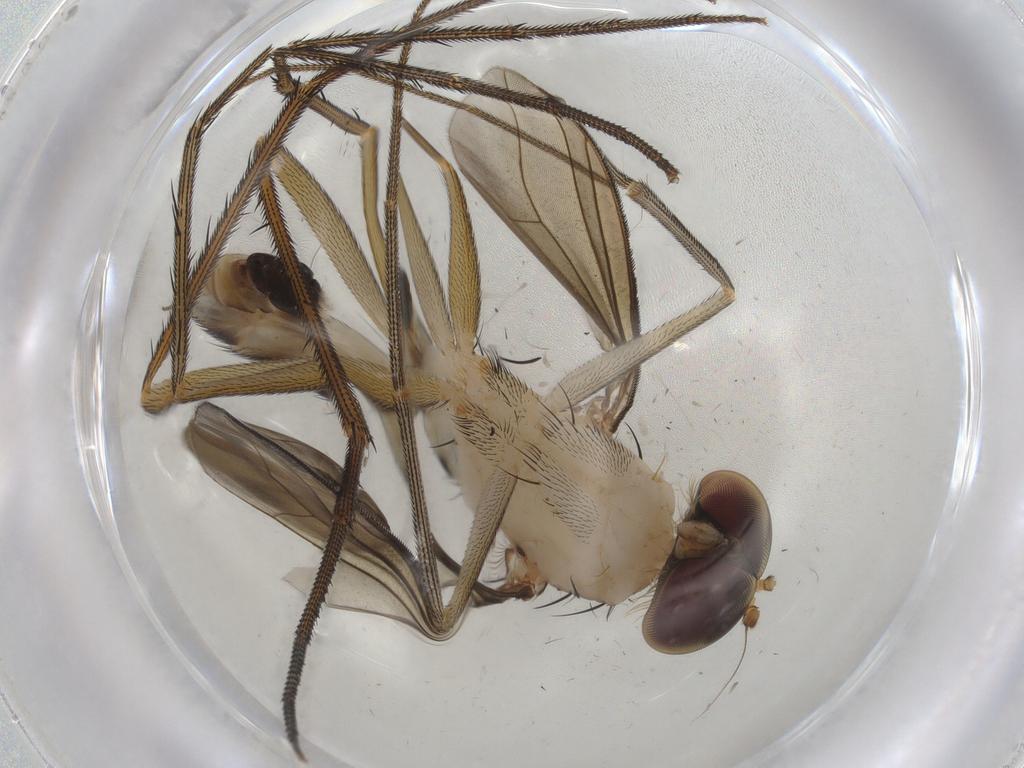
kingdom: Animalia
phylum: Arthropoda
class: Insecta
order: Diptera
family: Dolichopodidae
